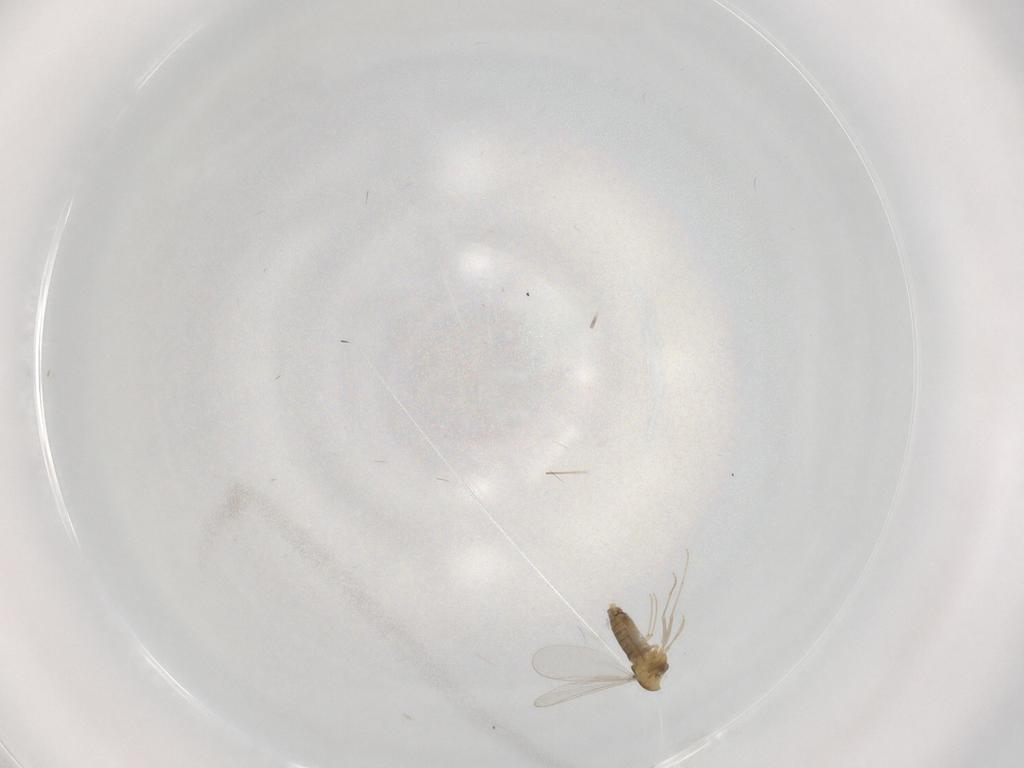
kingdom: Animalia
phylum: Arthropoda
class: Insecta
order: Diptera
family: Chironomidae
